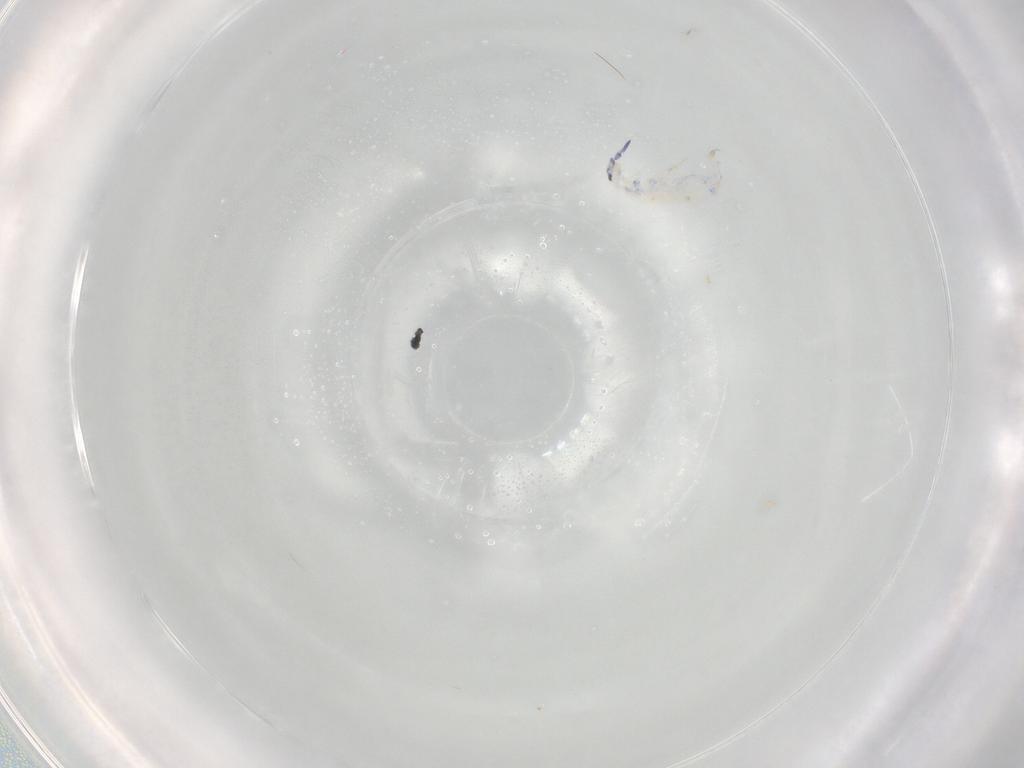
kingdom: Animalia
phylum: Arthropoda
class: Collembola
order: Entomobryomorpha
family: Entomobryidae
